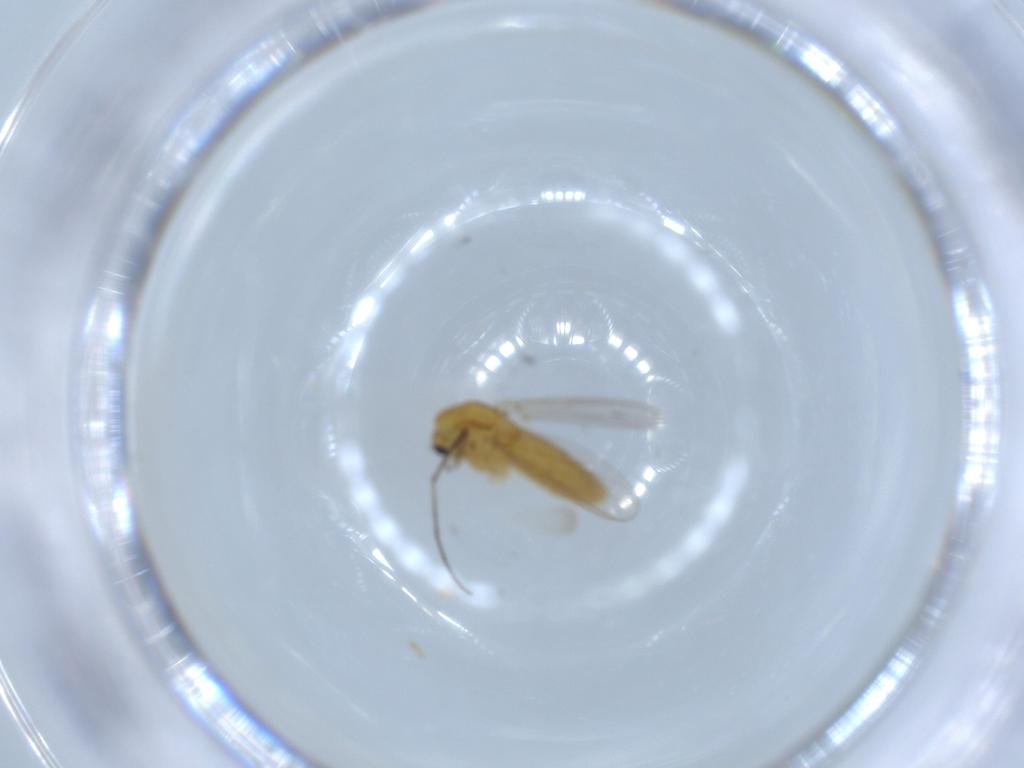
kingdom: Animalia
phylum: Arthropoda
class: Insecta
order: Diptera
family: Chironomidae
